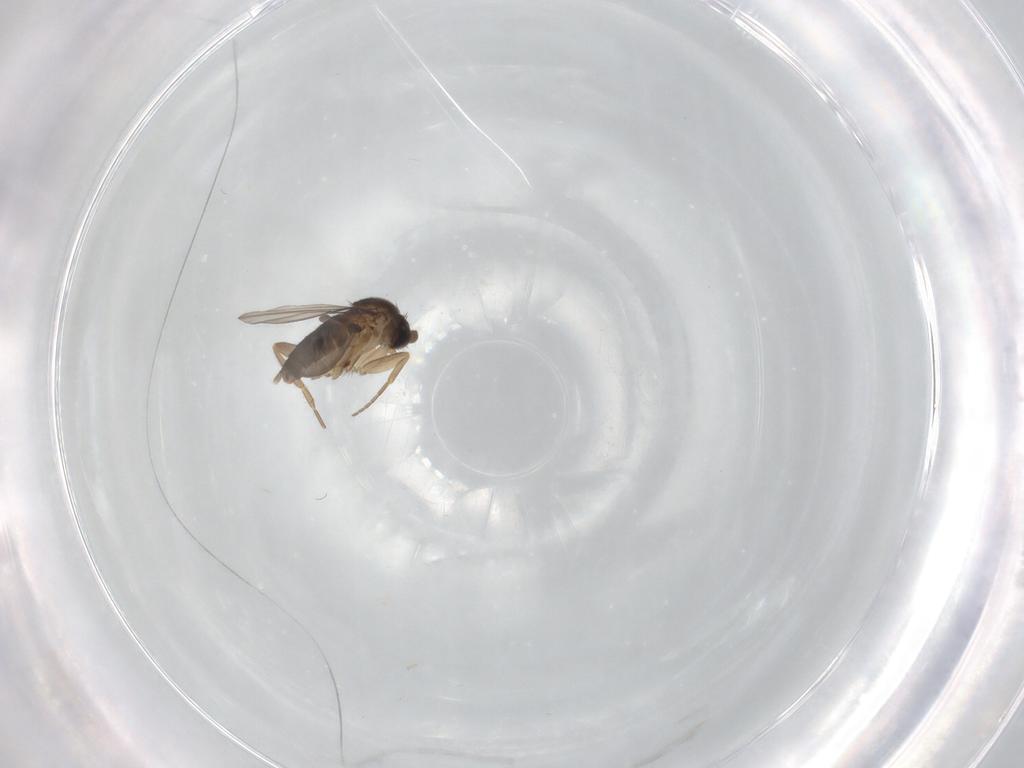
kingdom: Animalia
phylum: Arthropoda
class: Insecta
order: Diptera
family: Phoridae
